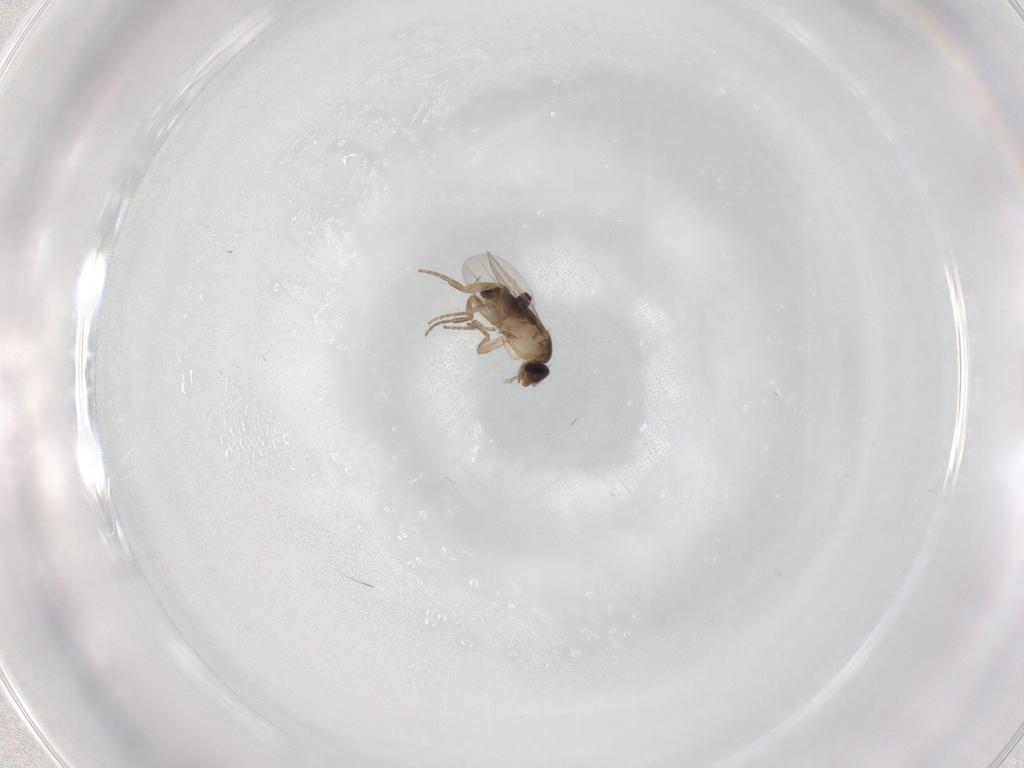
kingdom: Animalia
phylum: Arthropoda
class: Insecta
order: Diptera
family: Phoridae
